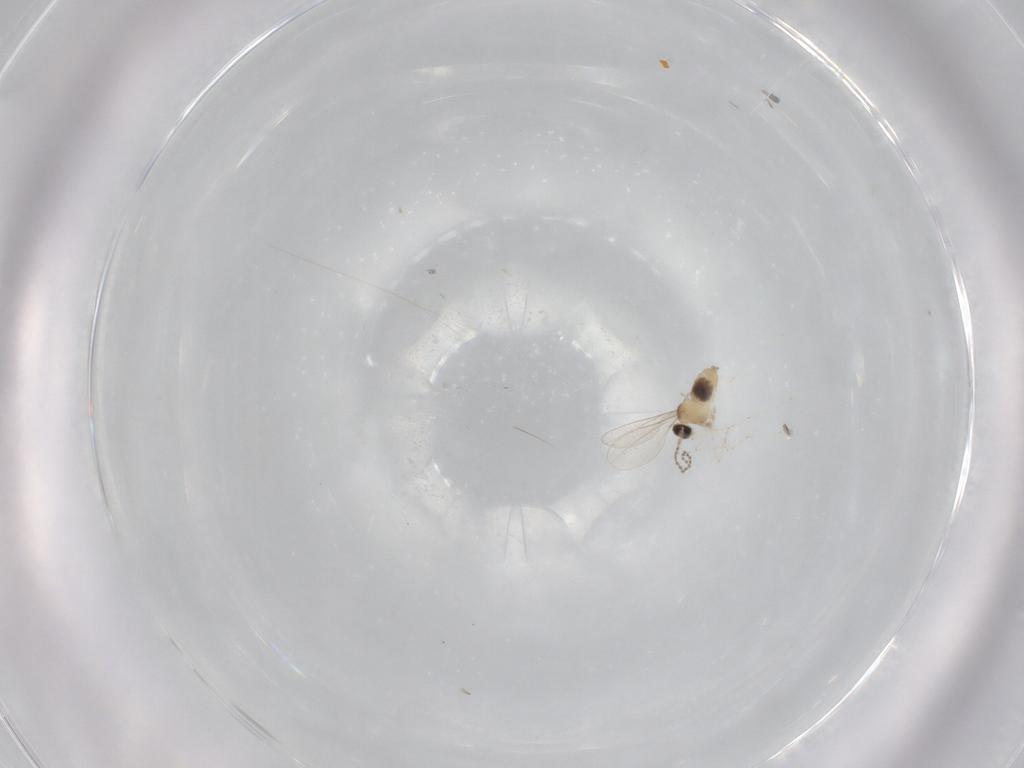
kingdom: Animalia
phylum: Arthropoda
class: Insecta
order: Diptera
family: Cecidomyiidae
